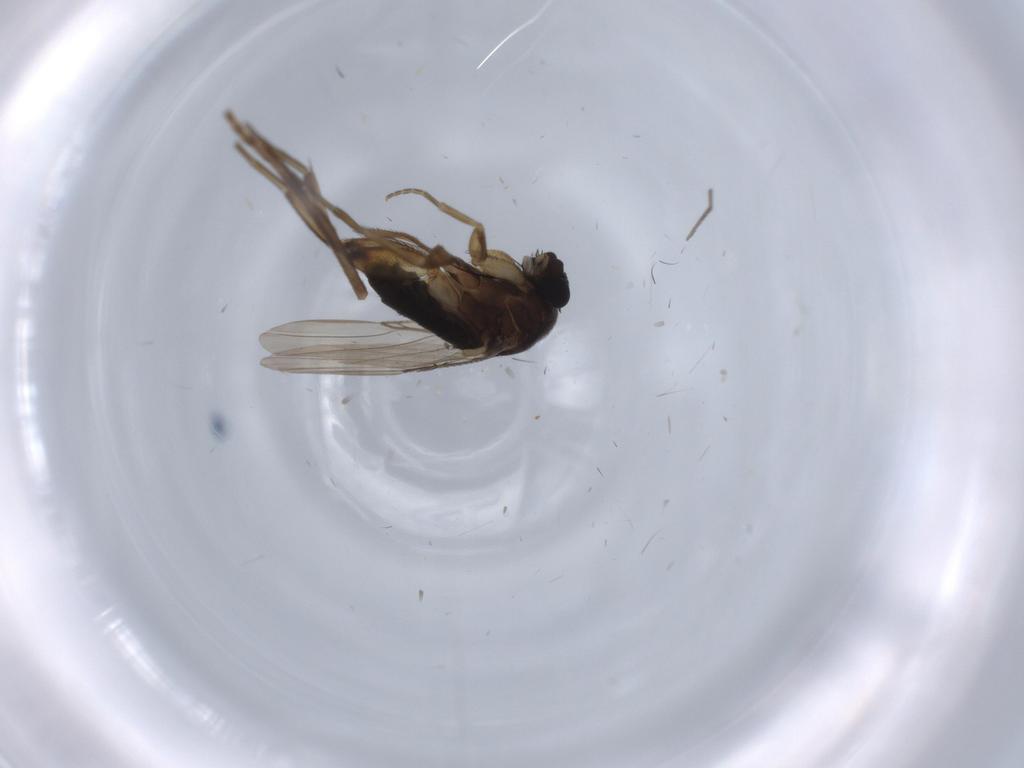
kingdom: Animalia
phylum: Arthropoda
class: Insecta
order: Diptera
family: Phoridae
